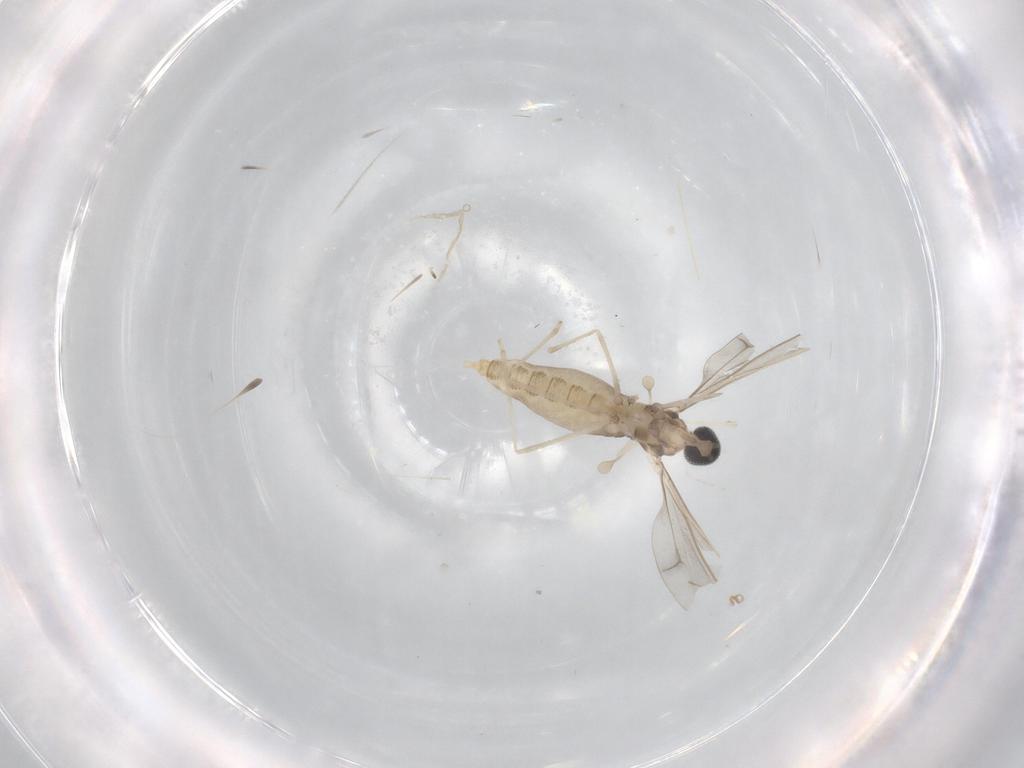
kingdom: Animalia
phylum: Arthropoda
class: Insecta
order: Diptera
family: Cecidomyiidae
